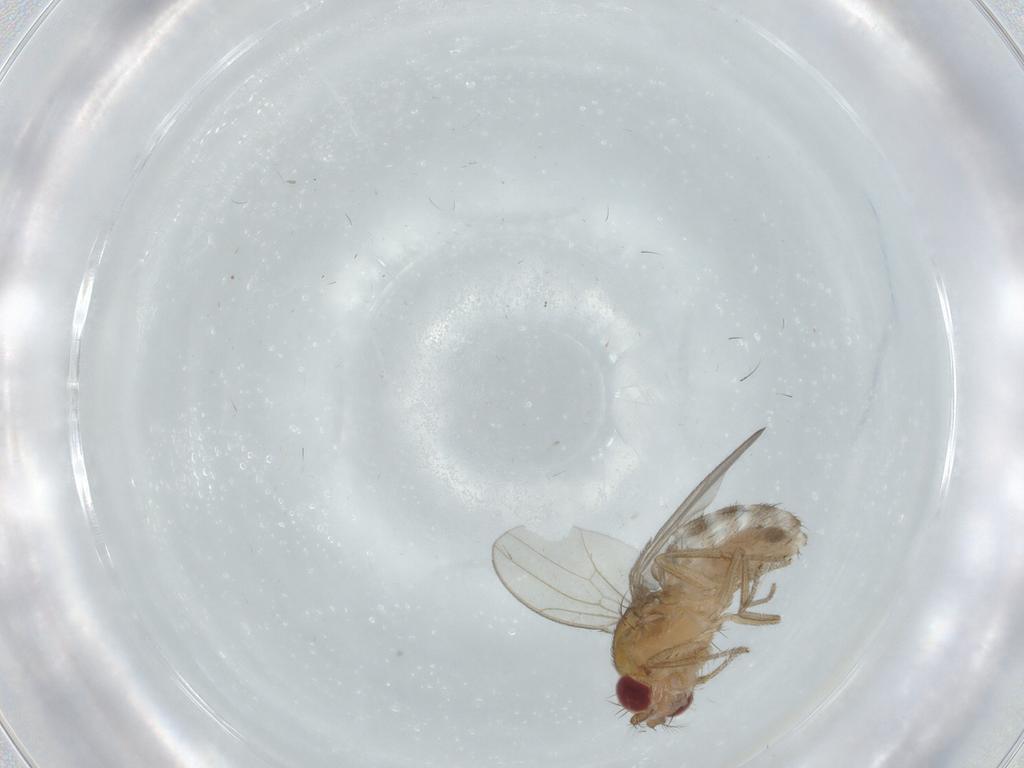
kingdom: Animalia
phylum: Arthropoda
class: Insecta
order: Diptera
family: Drosophilidae
